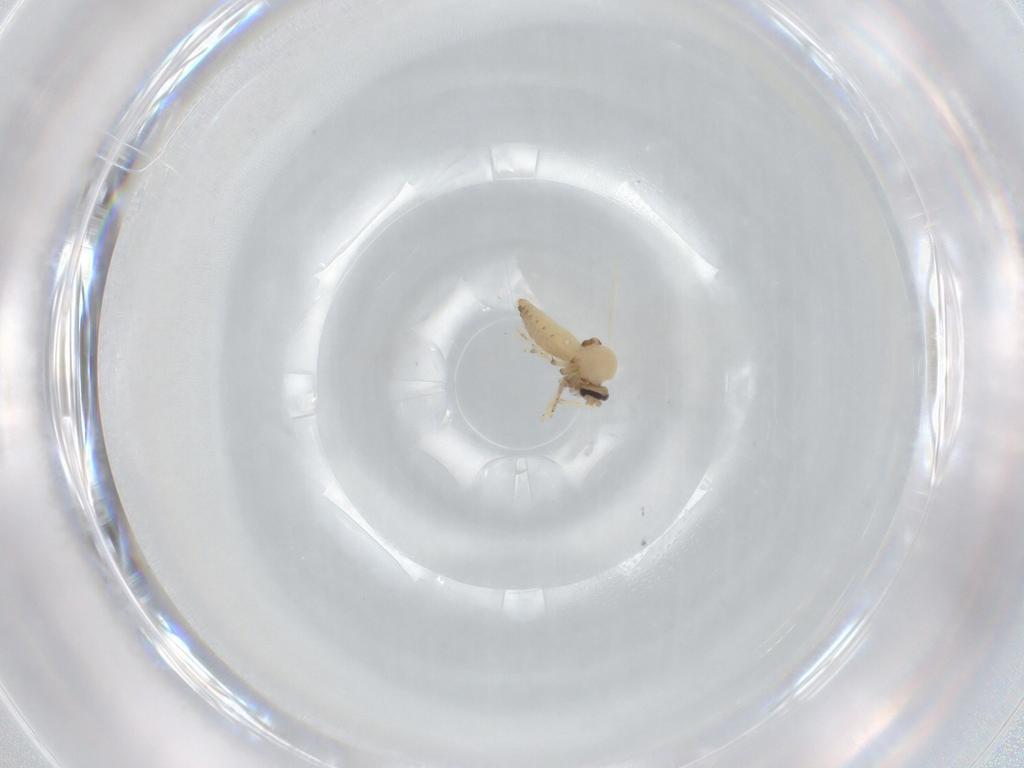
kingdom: Animalia
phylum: Arthropoda
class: Insecta
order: Diptera
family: Ceratopogonidae
